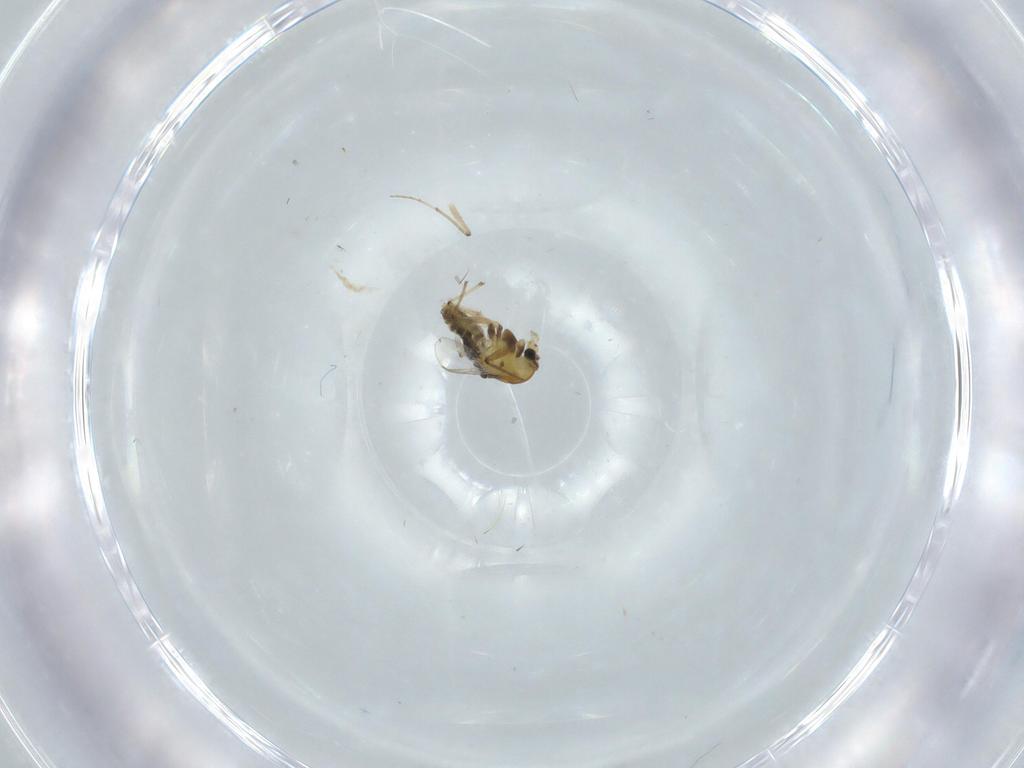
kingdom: Animalia
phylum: Arthropoda
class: Insecta
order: Diptera
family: Chironomidae
